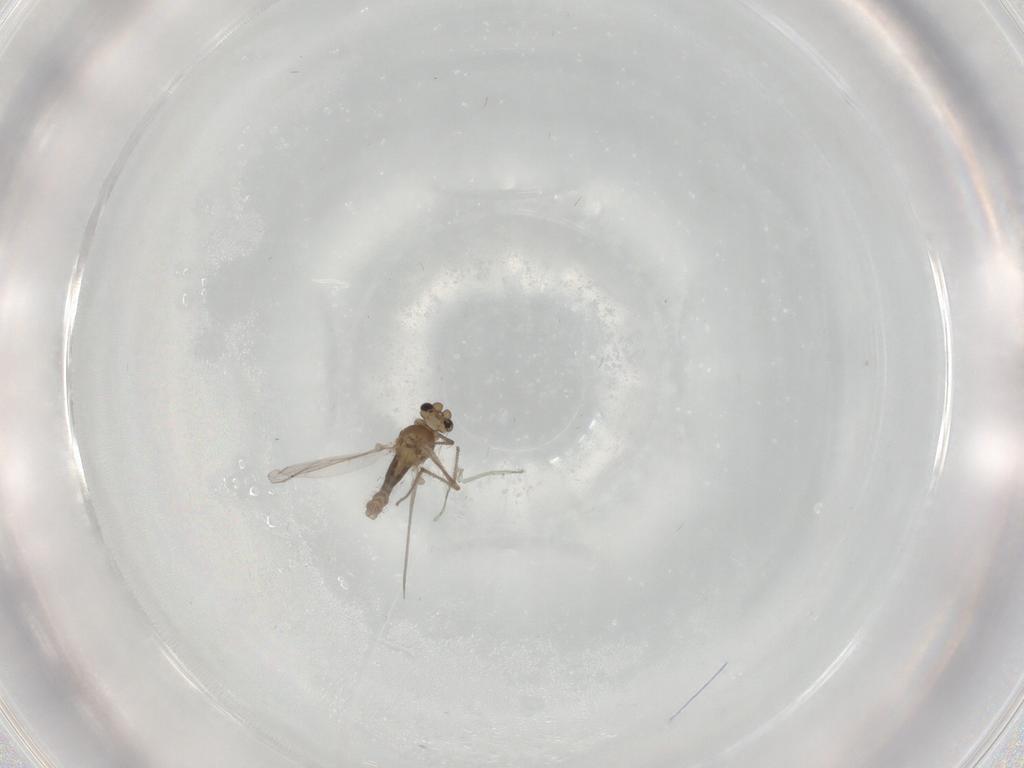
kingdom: Animalia
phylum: Arthropoda
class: Insecta
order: Diptera
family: Chironomidae
